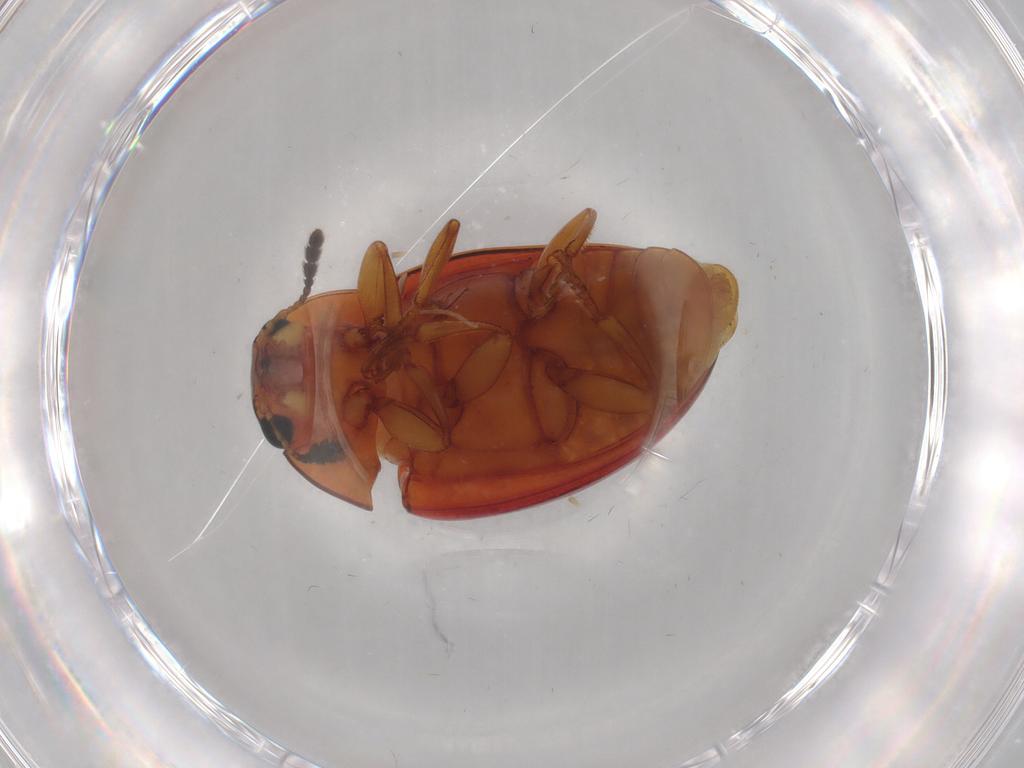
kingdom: Animalia
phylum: Arthropoda
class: Insecta
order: Coleoptera
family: Erotylidae
